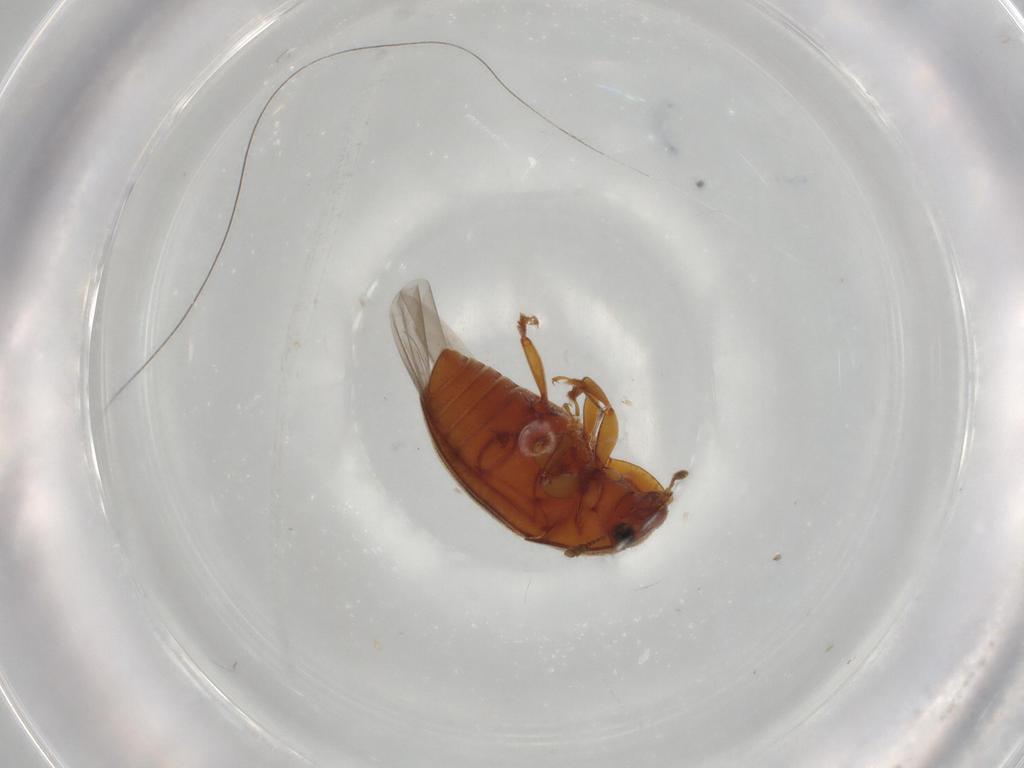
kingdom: Animalia
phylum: Arthropoda
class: Insecta
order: Coleoptera
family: Nitidulidae
